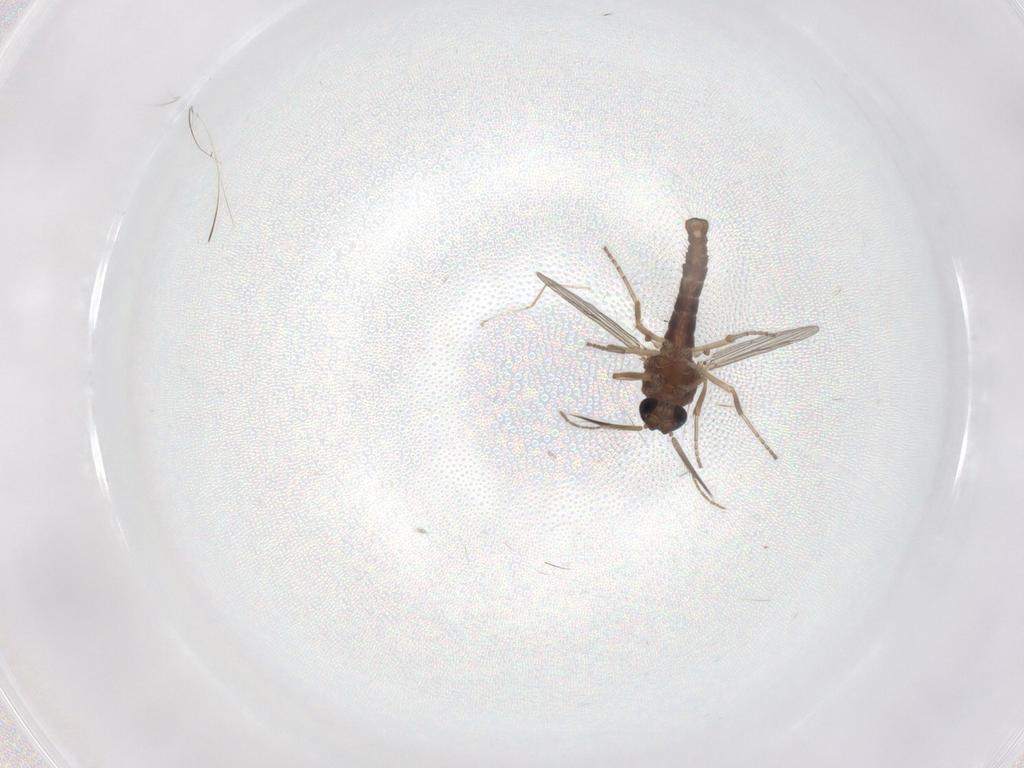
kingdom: Animalia
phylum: Arthropoda
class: Insecta
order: Diptera
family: Ceratopogonidae
